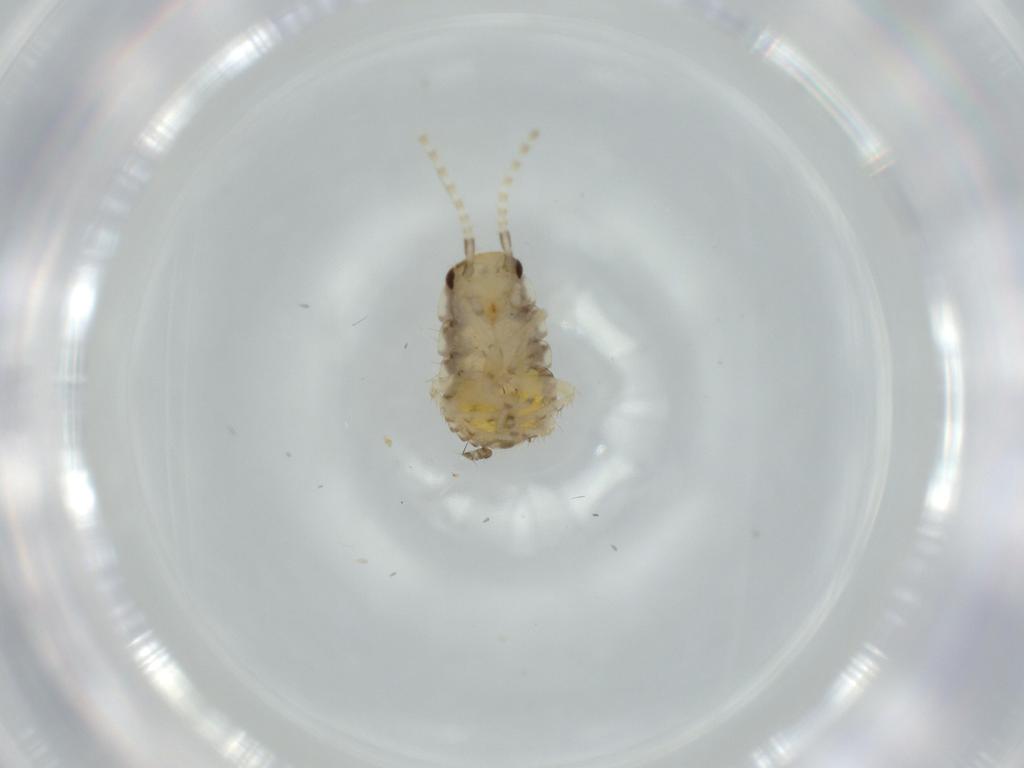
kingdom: Animalia
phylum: Arthropoda
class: Insecta
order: Blattodea
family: Ectobiidae
